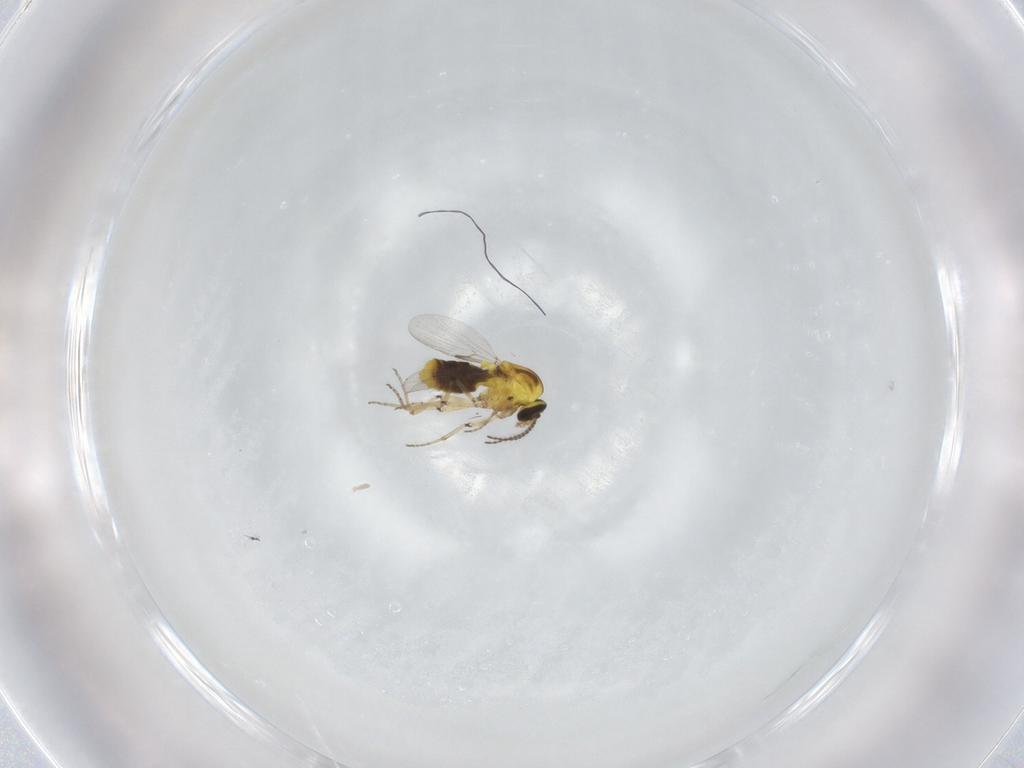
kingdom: Animalia
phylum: Arthropoda
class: Insecta
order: Diptera
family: Ceratopogonidae
